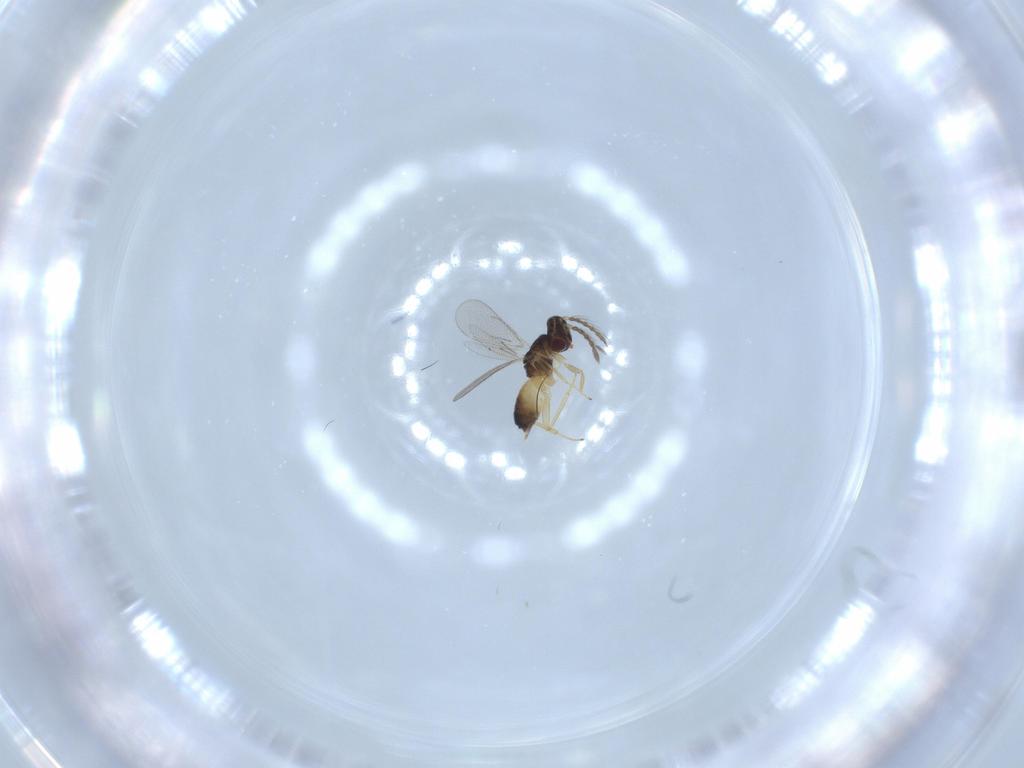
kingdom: Animalia
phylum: Arthropoda
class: Insecta
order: Hymenoptera
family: Eulophidae
